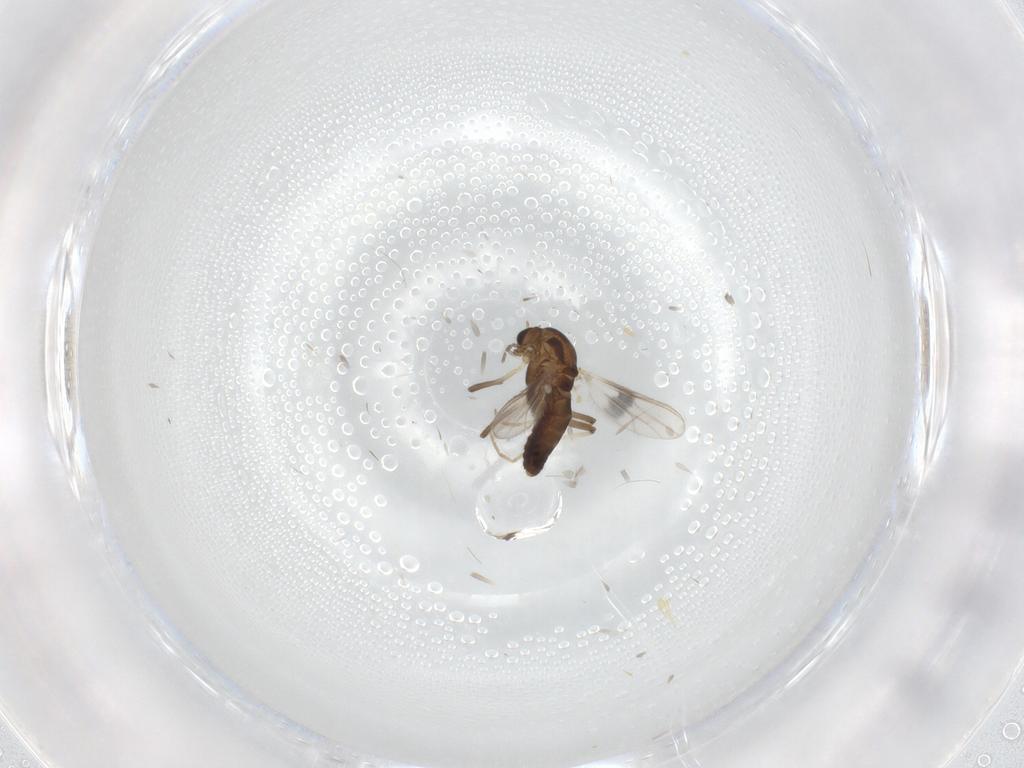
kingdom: Animalia
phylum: Arthropoda
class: Insecta
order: Diptera
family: Chironomidae
